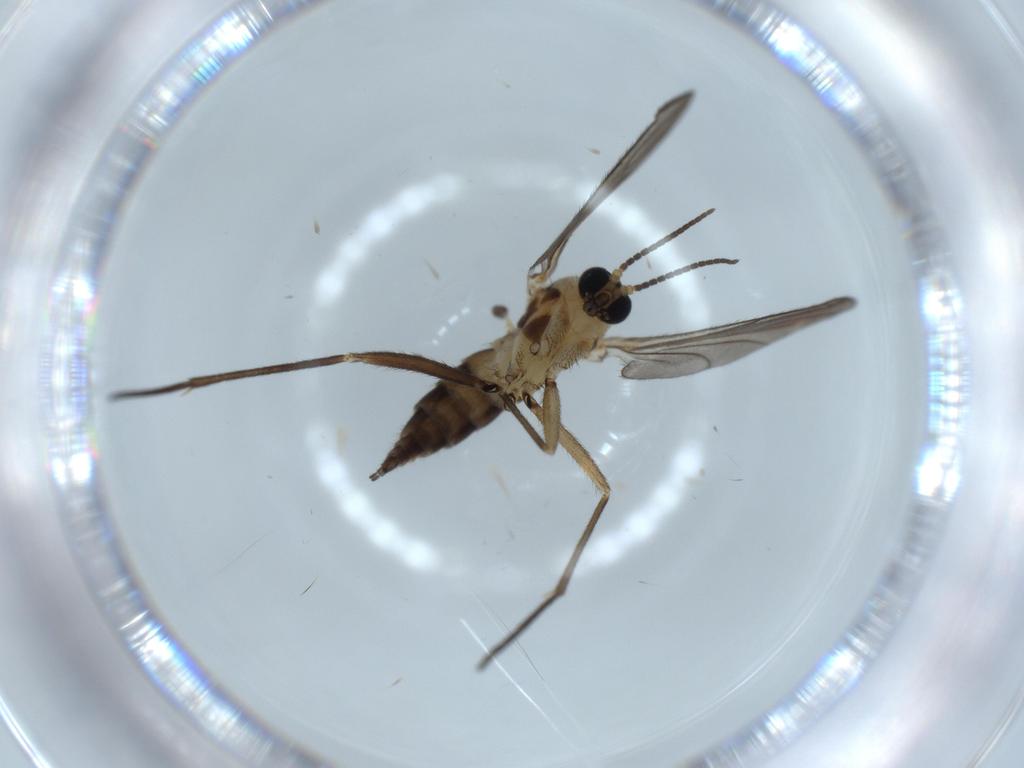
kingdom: Animalia
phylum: Arthropoda
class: Insecta
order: Diptera
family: Sciaridae
